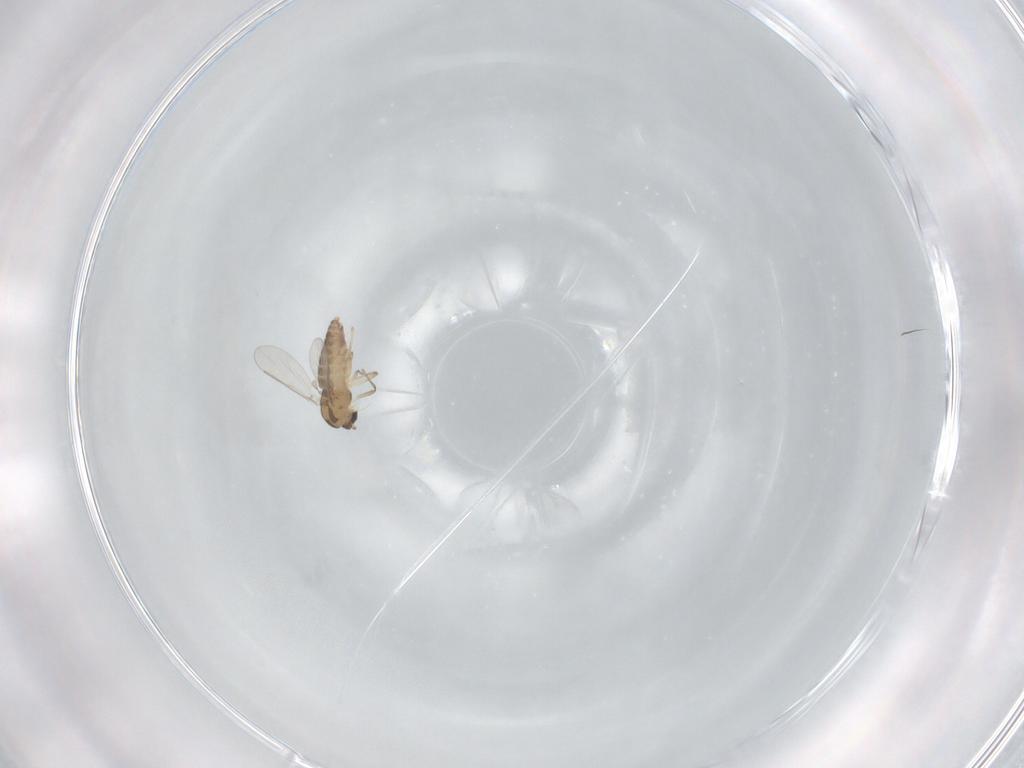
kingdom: Animalia
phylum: Arthropoda
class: Insecta
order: Diptera
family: Chironomidae
